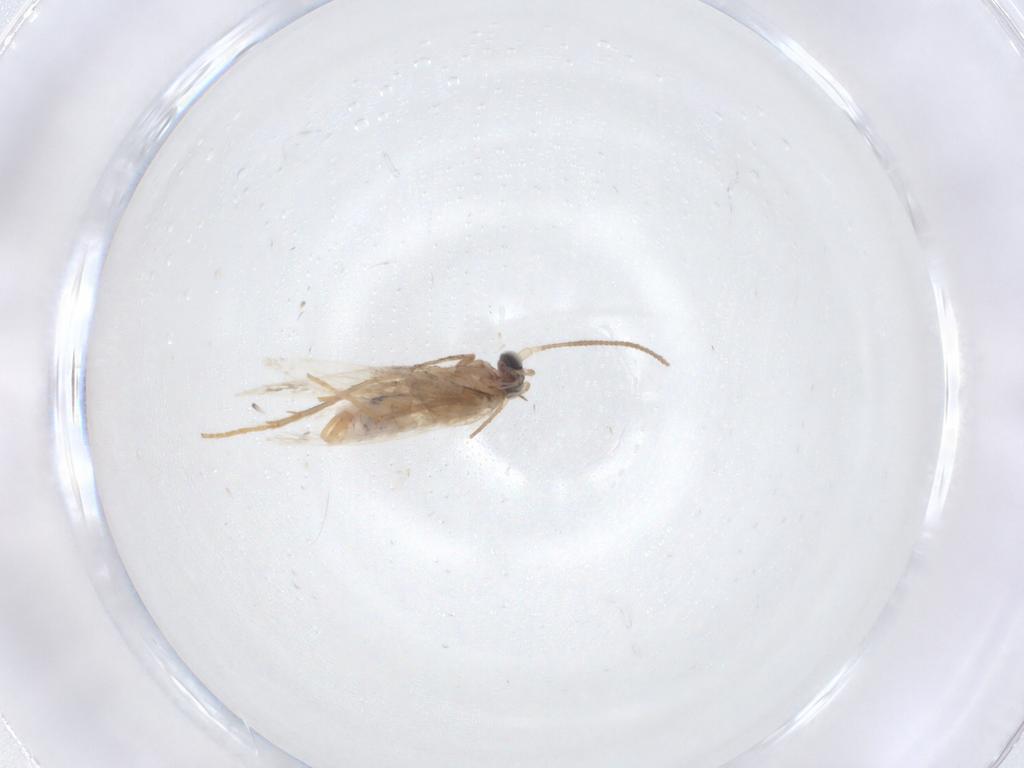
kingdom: Animalia
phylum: Arthropoda
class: Insecta
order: Lepidoptera
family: Nepticulidae
